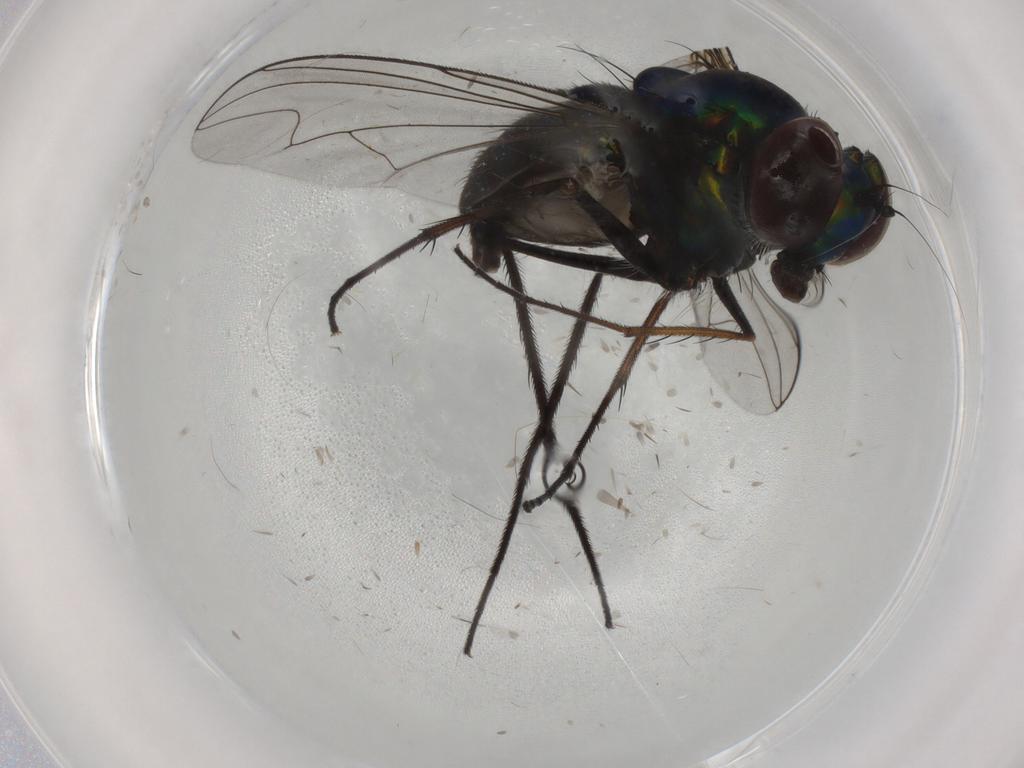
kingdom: Animalia
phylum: Arthropoda
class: Insecta
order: Diptera
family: Dolichopodidae
